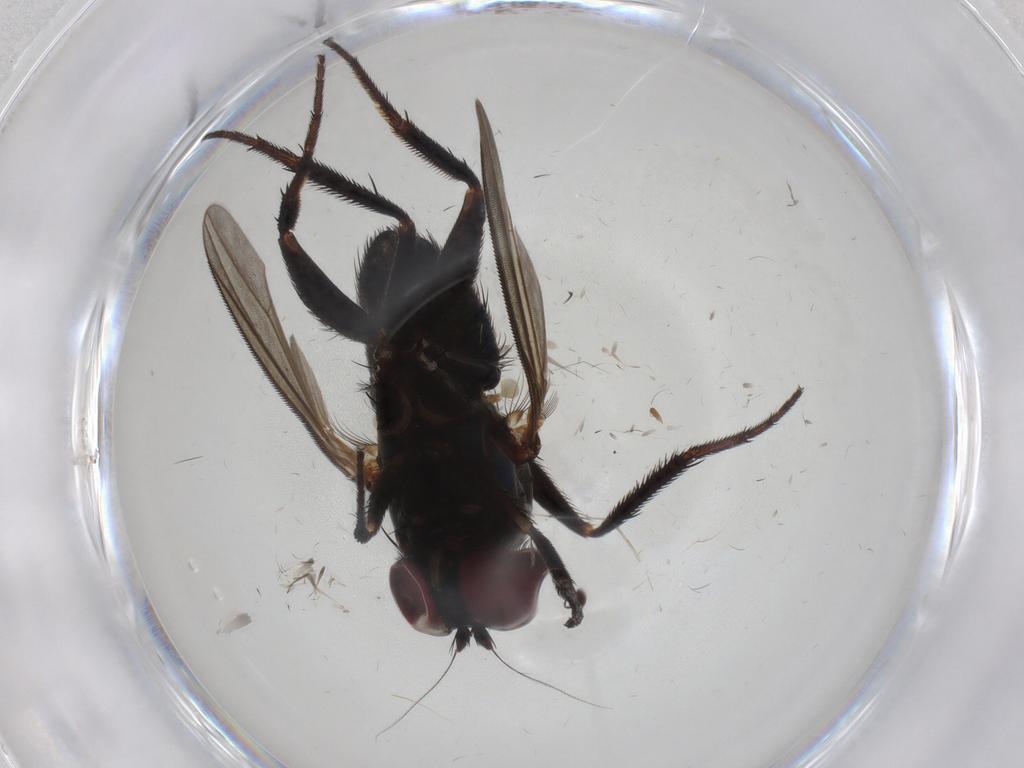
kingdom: Animalia
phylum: Arthropoda
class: Insecta
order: Diptera
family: Dolichopodidae
